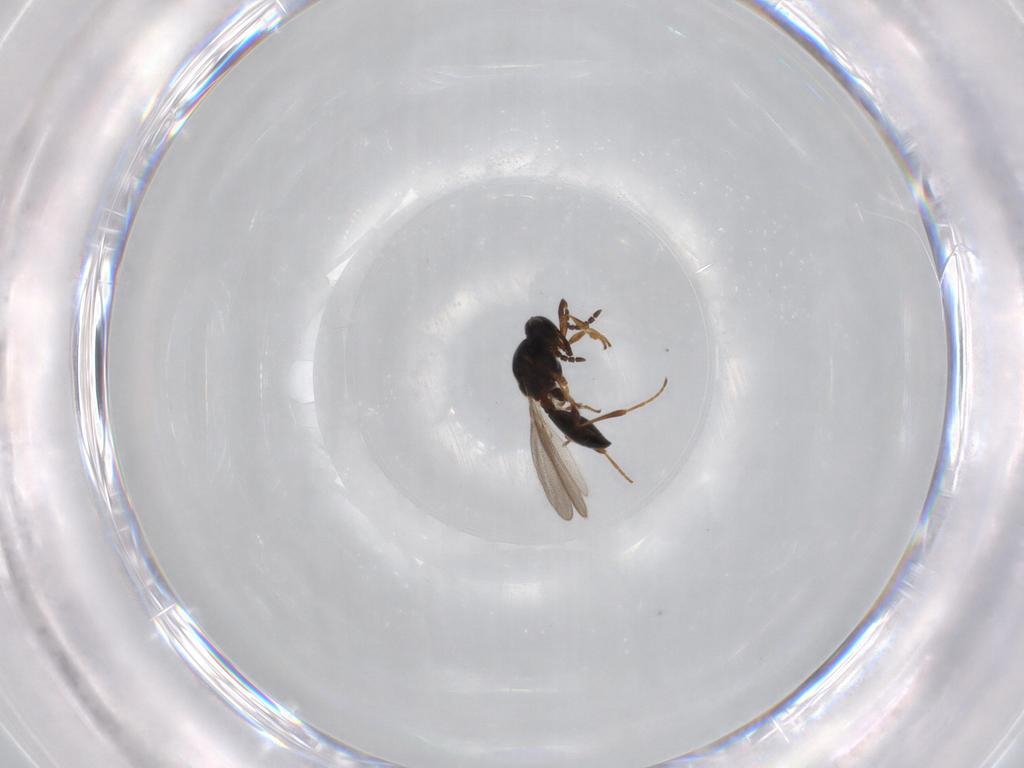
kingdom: Animalia
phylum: Arthropoda
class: Insecta
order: Hymenoptera
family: Platygastridae
